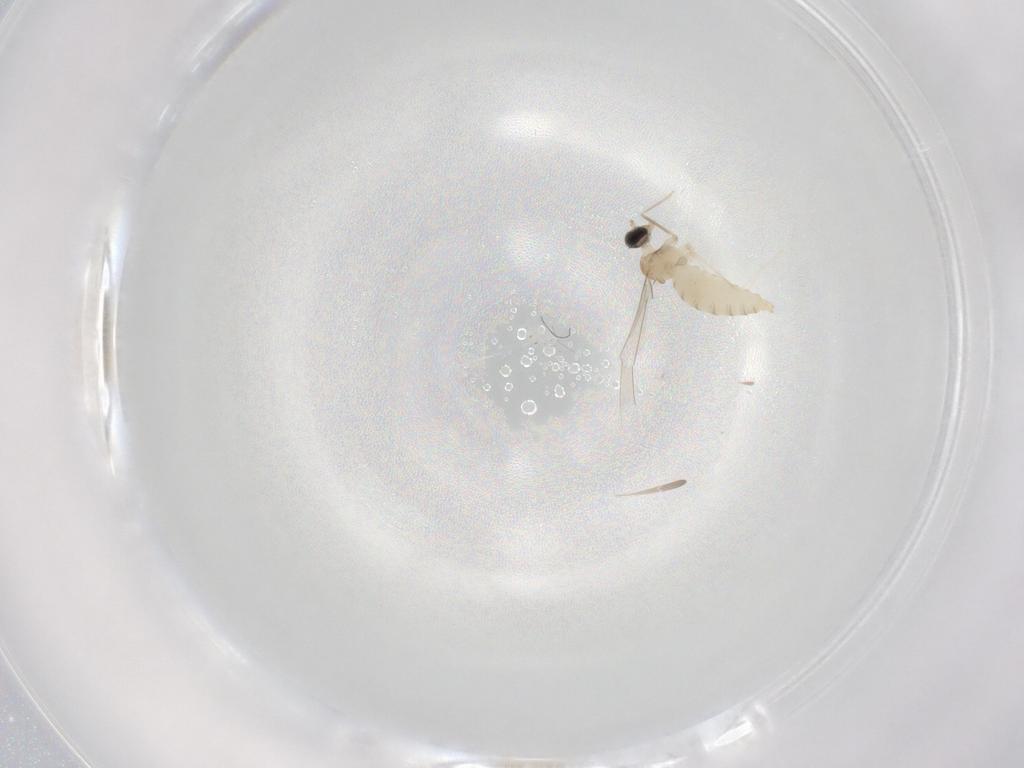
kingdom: Animalia
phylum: Arthropoda
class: Insecta
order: Diptera
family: Cecidomyiidae
